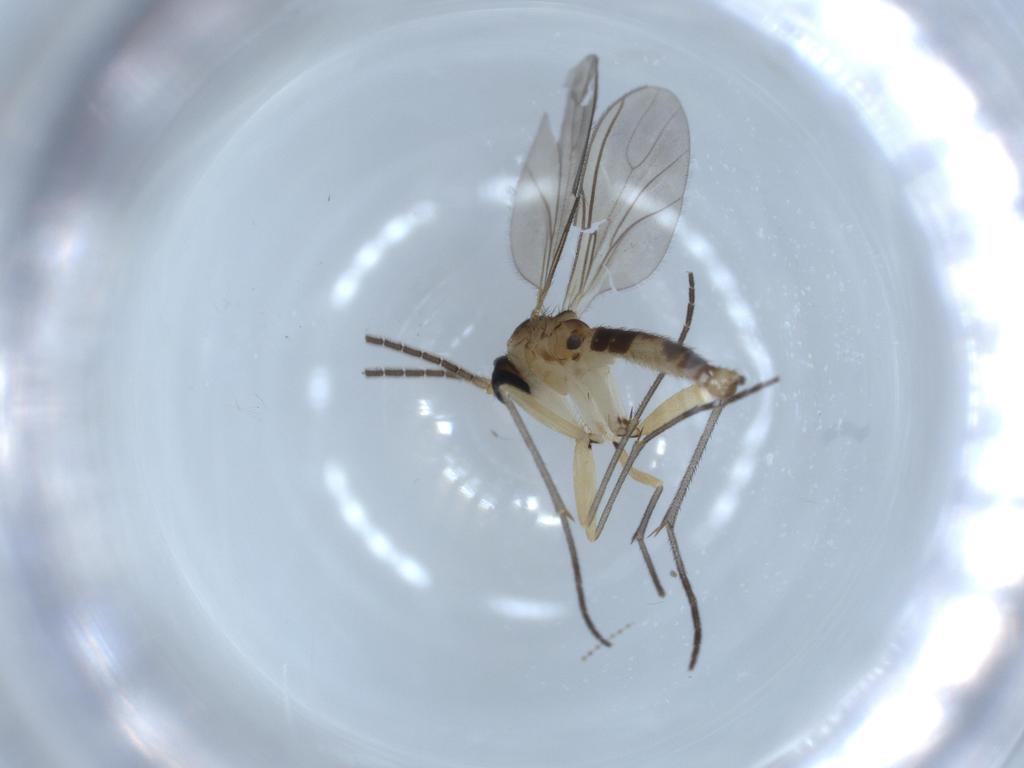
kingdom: Animalia
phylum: Arthropoda
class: Insecta
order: Diptera
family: Sciaridae
